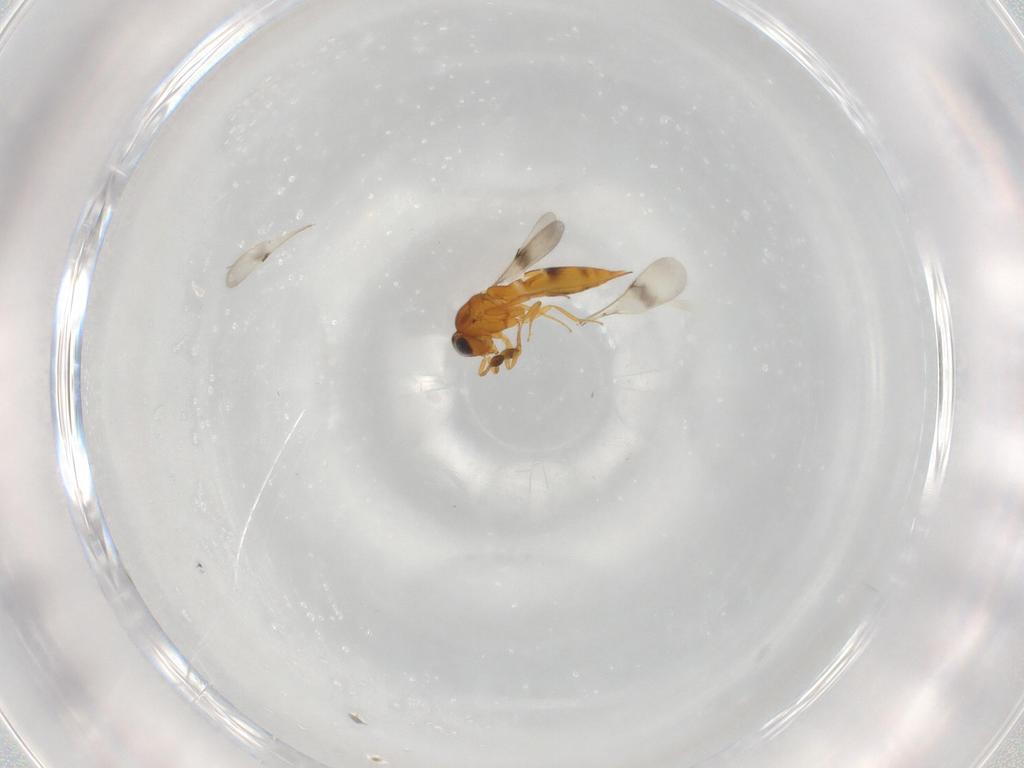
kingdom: Animalia
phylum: Arthropoda
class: Insecta
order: Hymenoptera
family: Scelionidae
